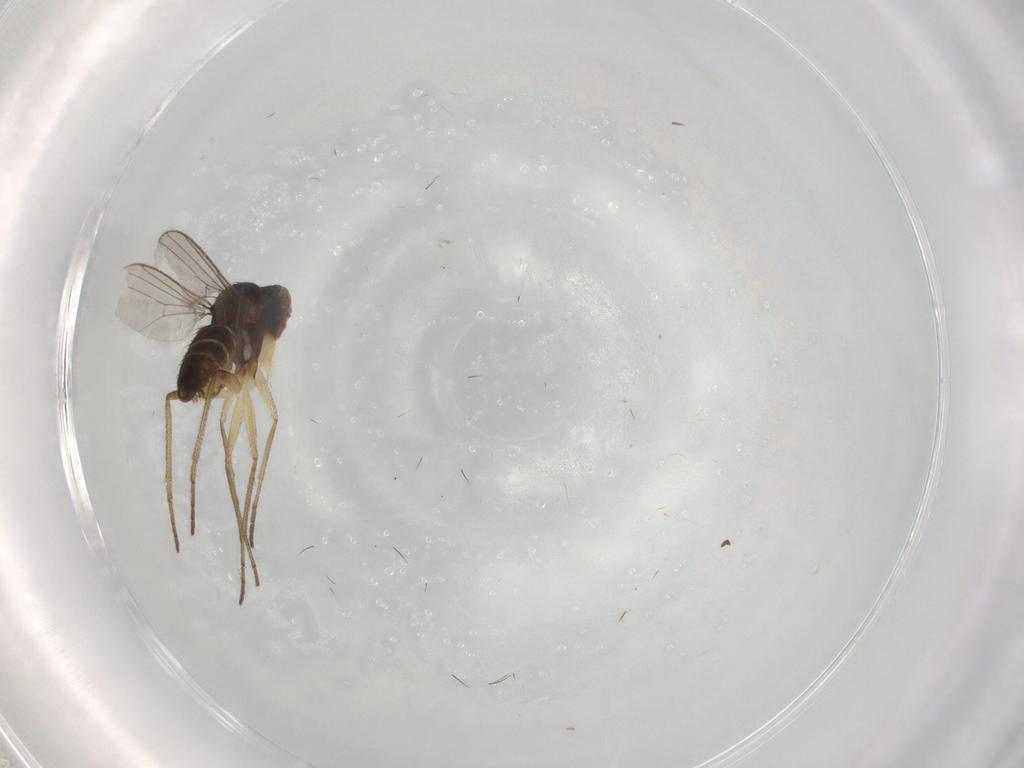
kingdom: Animalia
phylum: Arthropoda
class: Insecta
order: Diptera
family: Dolichopodidae
